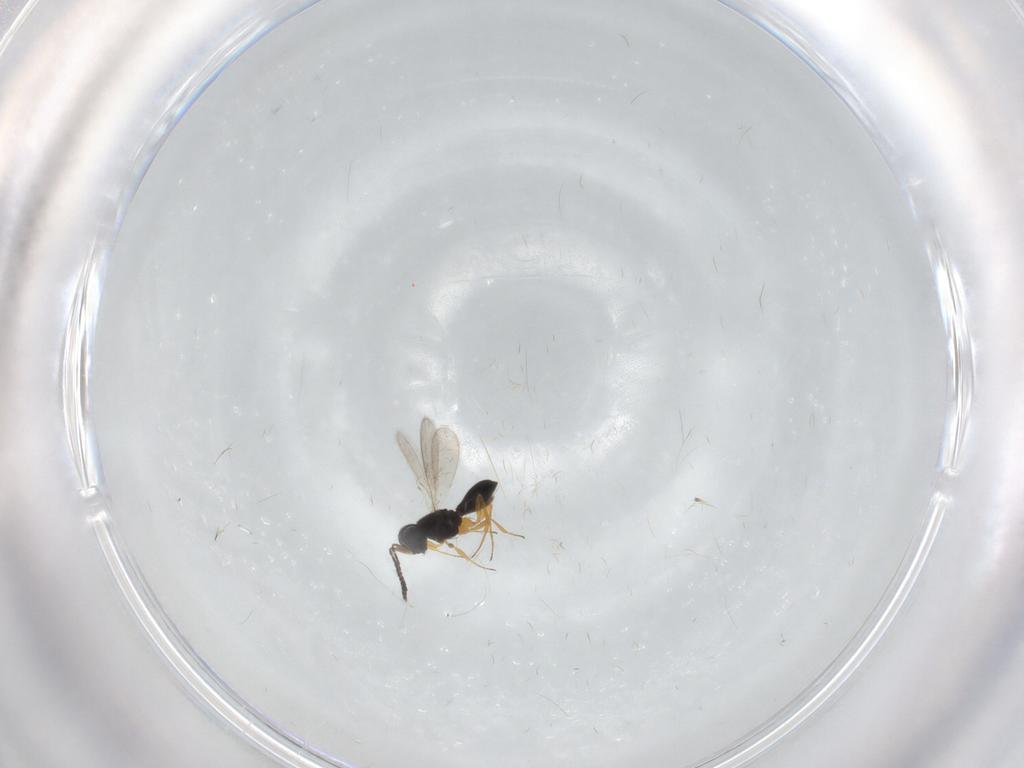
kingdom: Animalia
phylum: Arthropoda
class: Insecta
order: Hymenoptera
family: Scelionidae
